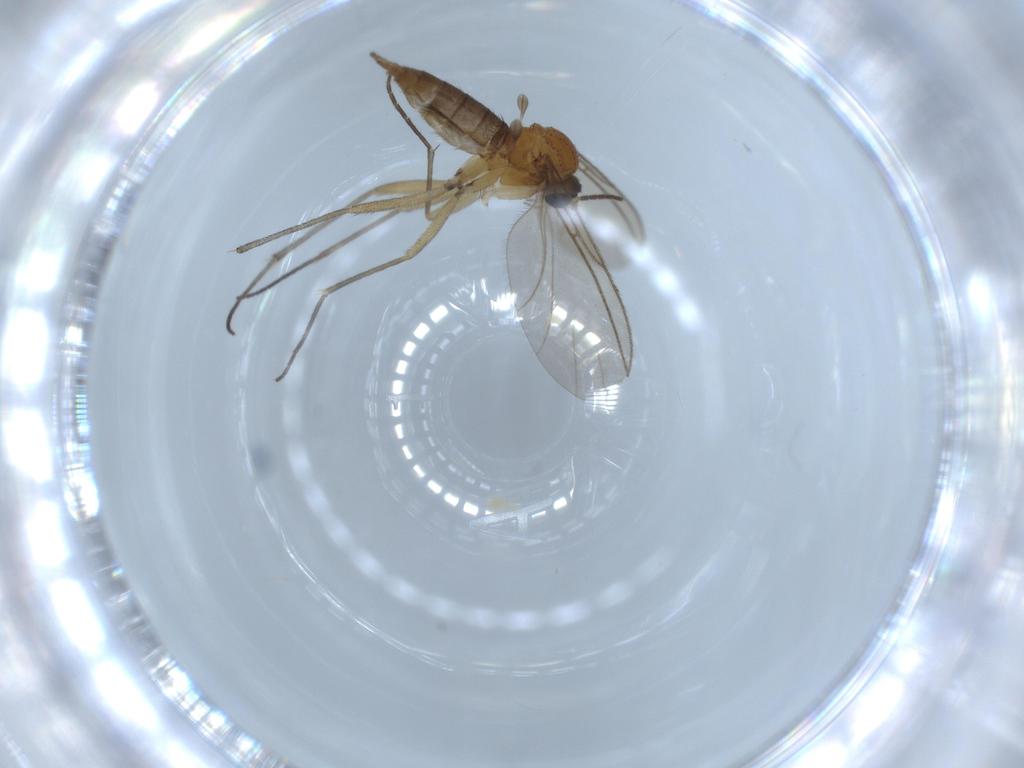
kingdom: Animalia
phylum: Arthropoda
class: Insecta
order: Diptera
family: Sciaridae
